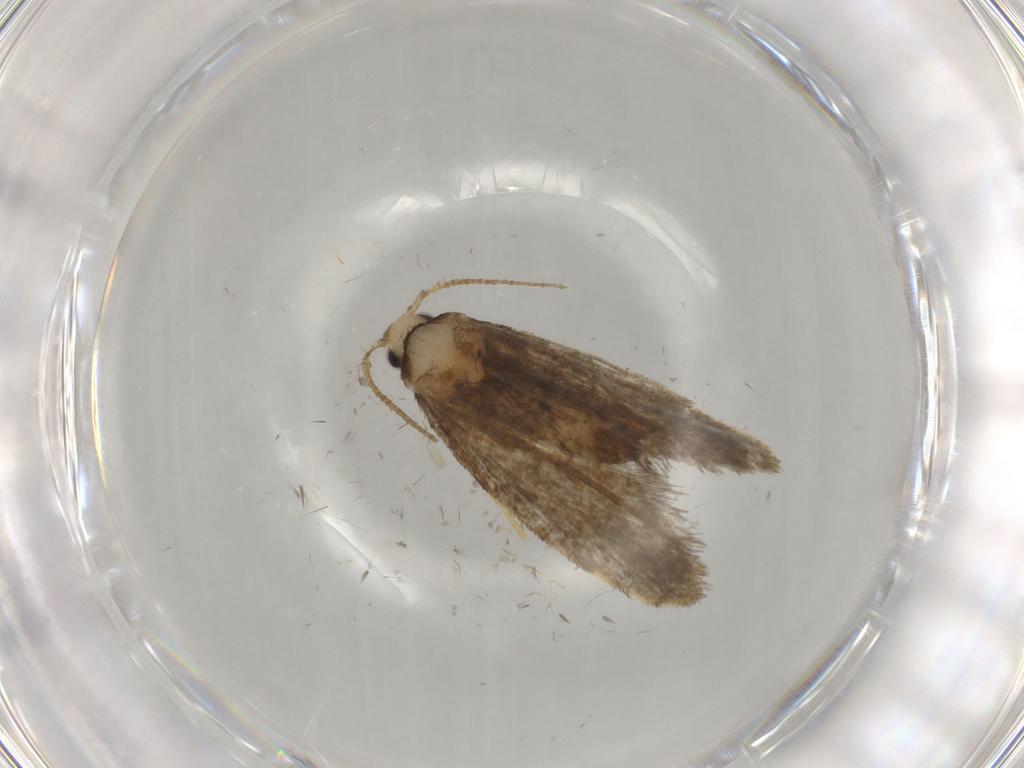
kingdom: Animalia
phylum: Arthropoda
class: Insecta
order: Lepidoptera
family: Psychidae
